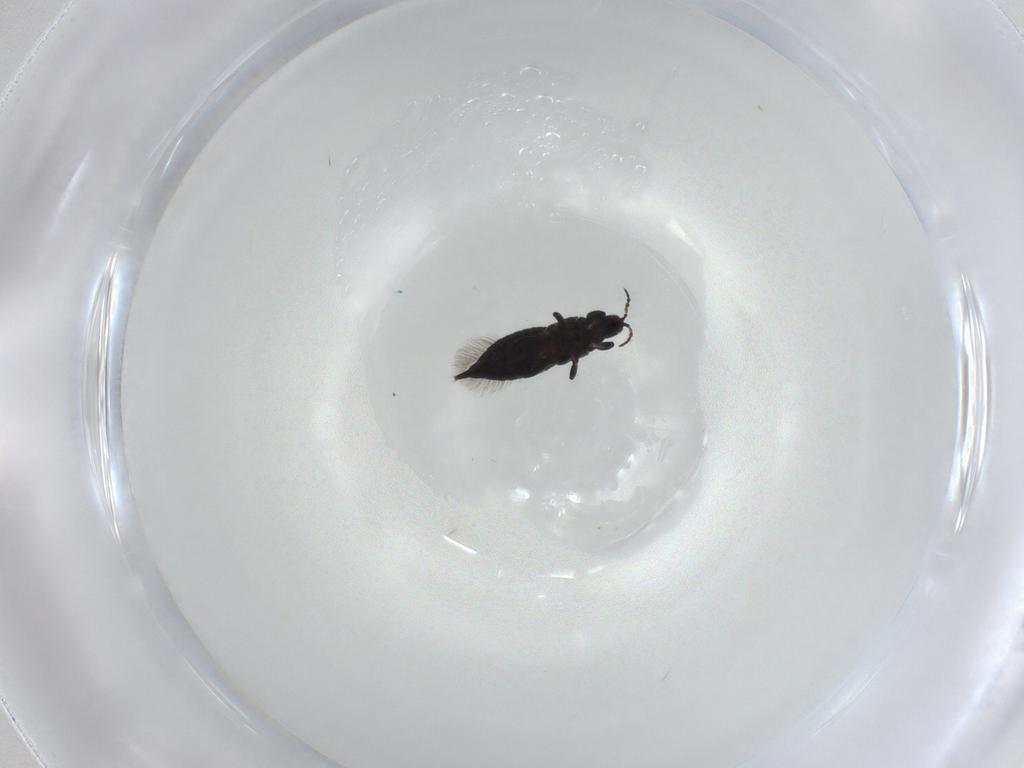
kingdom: Animalia
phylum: Arthropoda
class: Insecta
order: Thysanoptera
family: Phlaeothripidae
